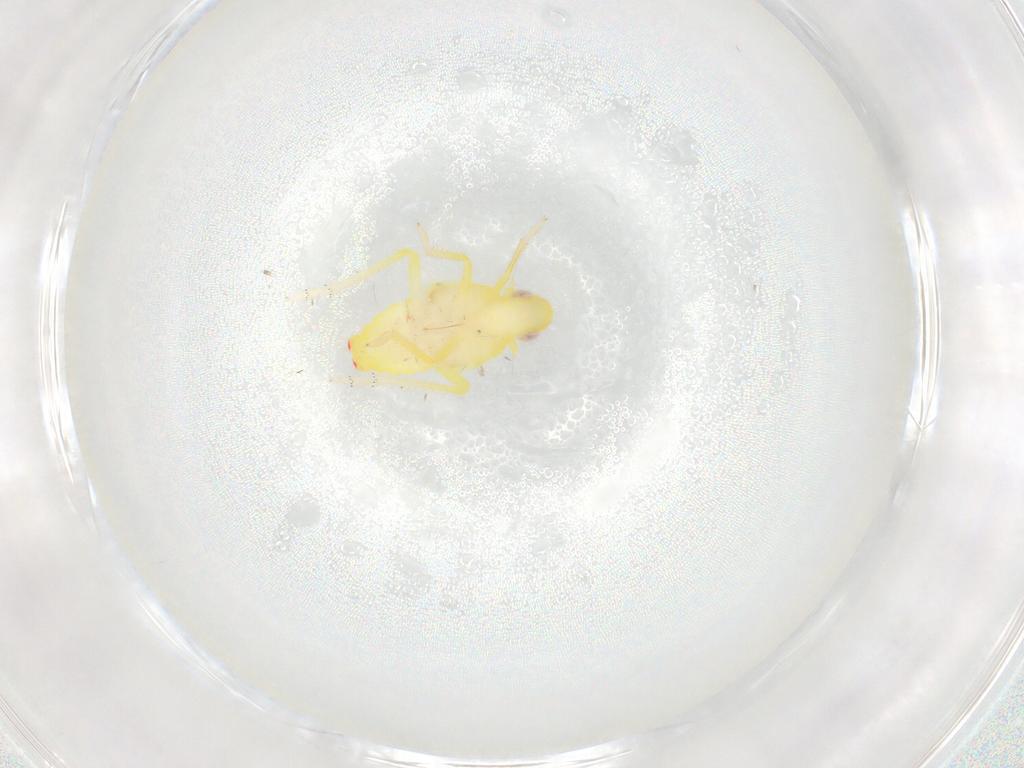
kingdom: Animalia
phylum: Arthropoda
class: Insecta
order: Hemiptera
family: Tropiduchidae
